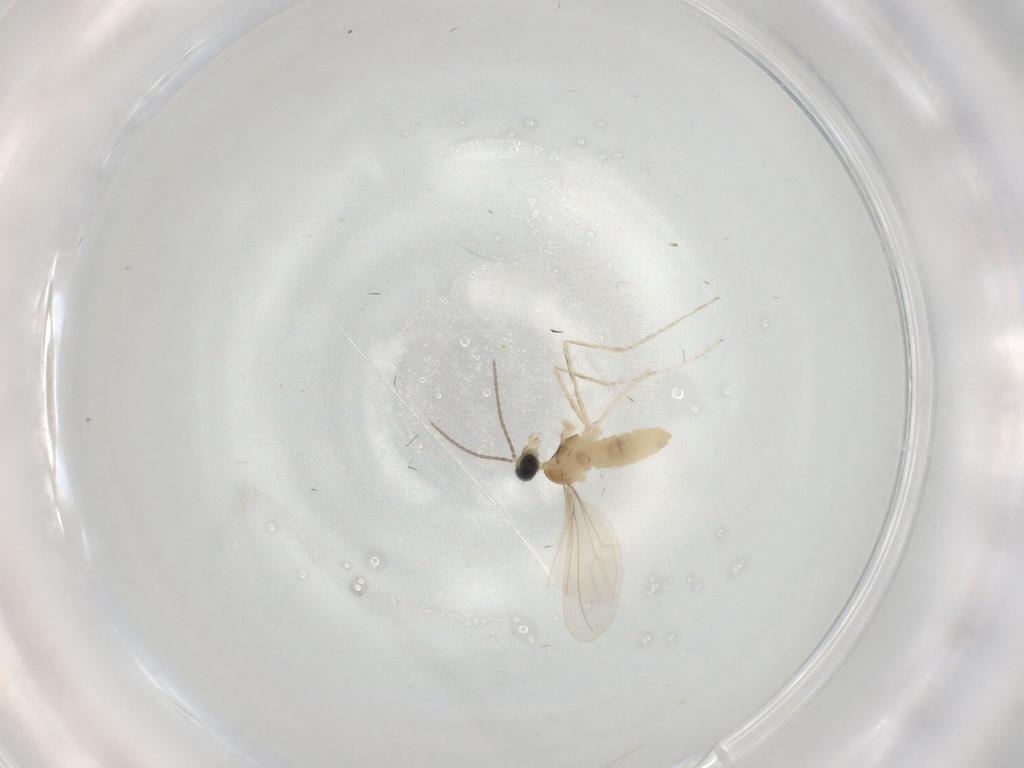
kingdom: Animalia
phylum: Arthropoda
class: Insecta
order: Diptera
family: Cecidomyiidae
